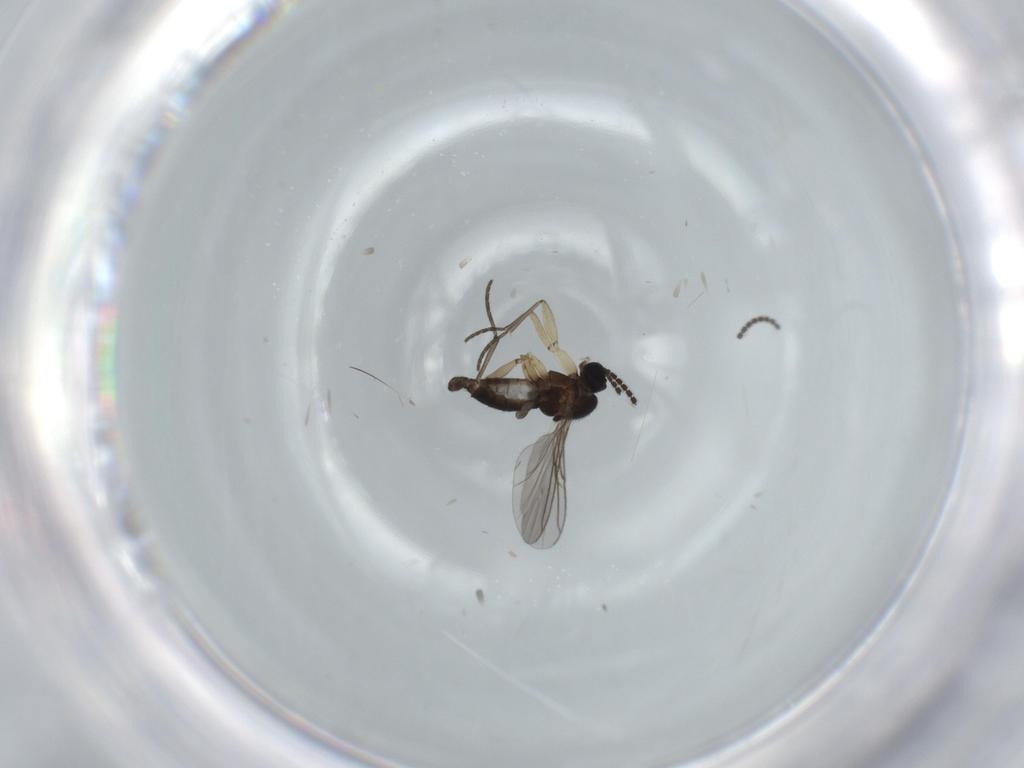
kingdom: Animalia
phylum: Arthropoda
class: Insecta
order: Diptera
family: Sciaridae
